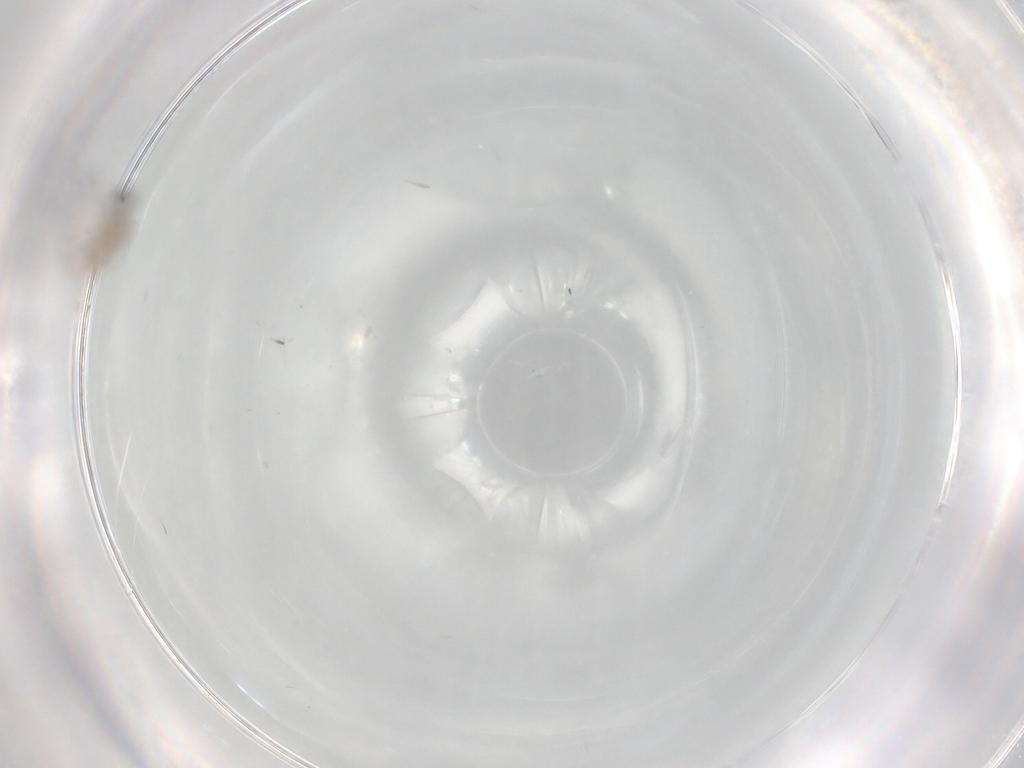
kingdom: Animalia
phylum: Arthropoda
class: Insecta
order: Diptera
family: Cecidomyiidae
